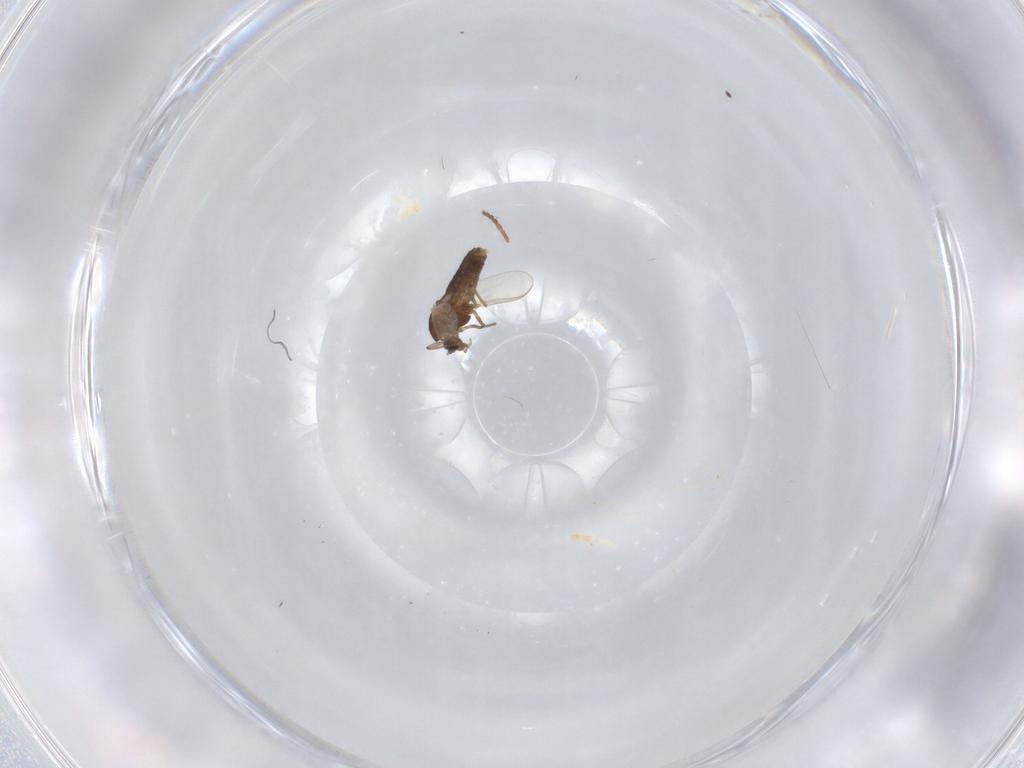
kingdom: Animalia
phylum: Arthropoda
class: Insecta
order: Diptera
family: Chironomidae
